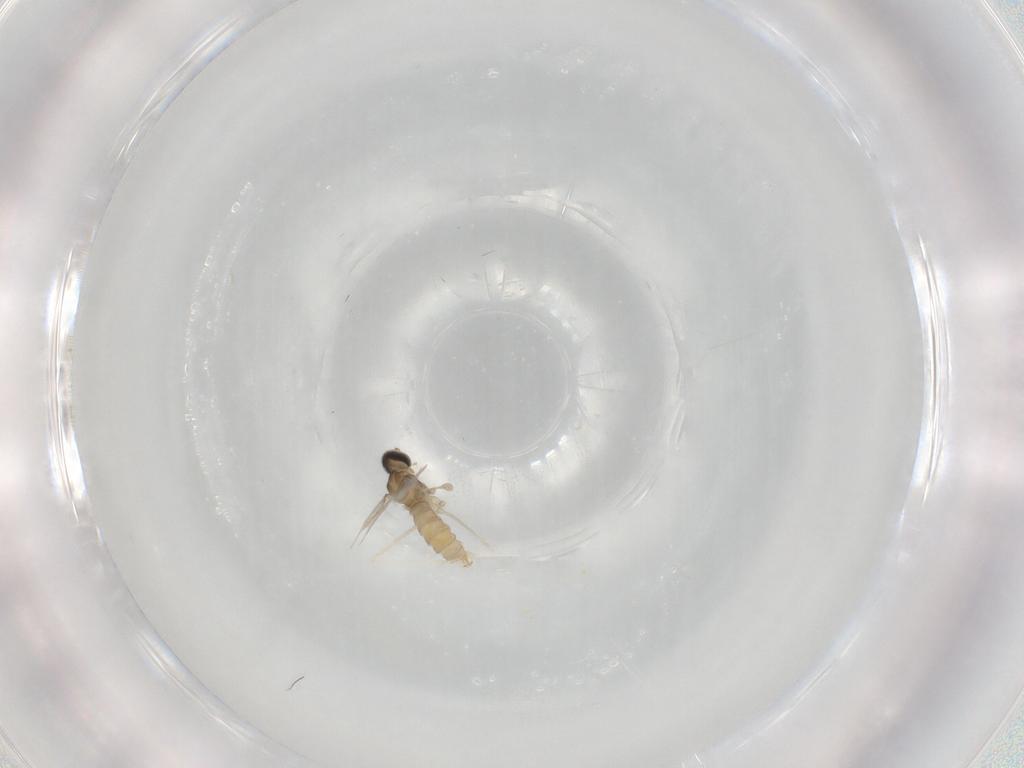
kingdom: Animalia
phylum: Arthropoda
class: Insecta
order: Diptera
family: Cecidomyiidae
